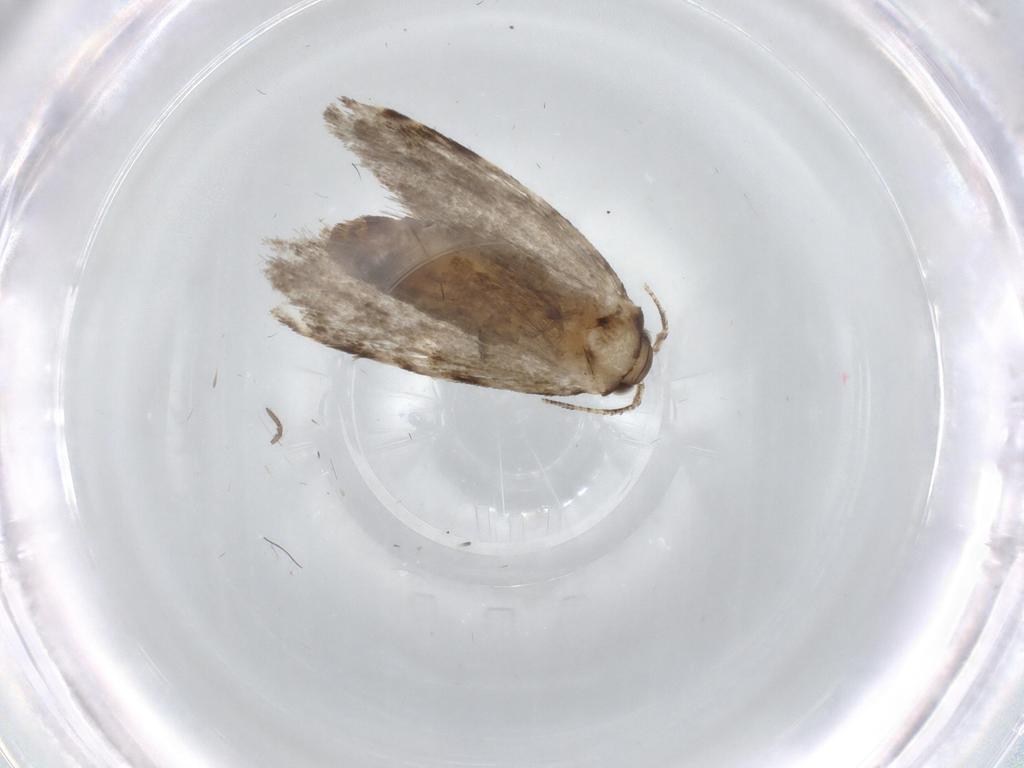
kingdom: Animalia
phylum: Arthropoda
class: Insecta
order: Lepidoptera
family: Tineidae
